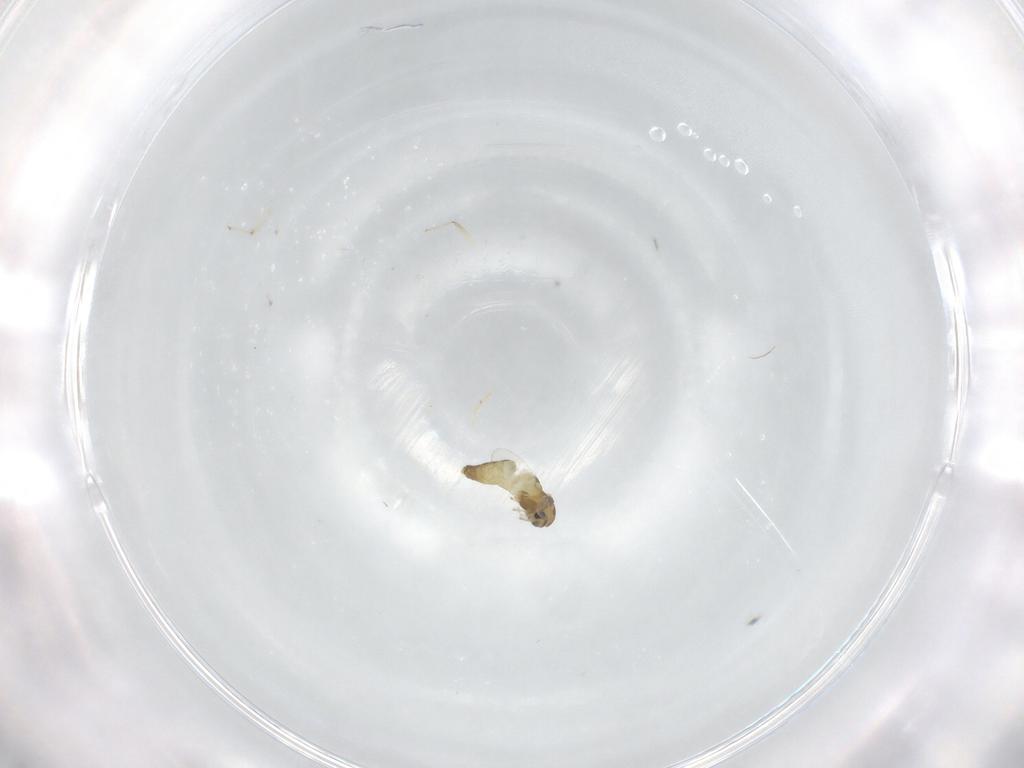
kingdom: Animalia
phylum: Arthropoda
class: Insecta
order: Diptera
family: Chironomidae
